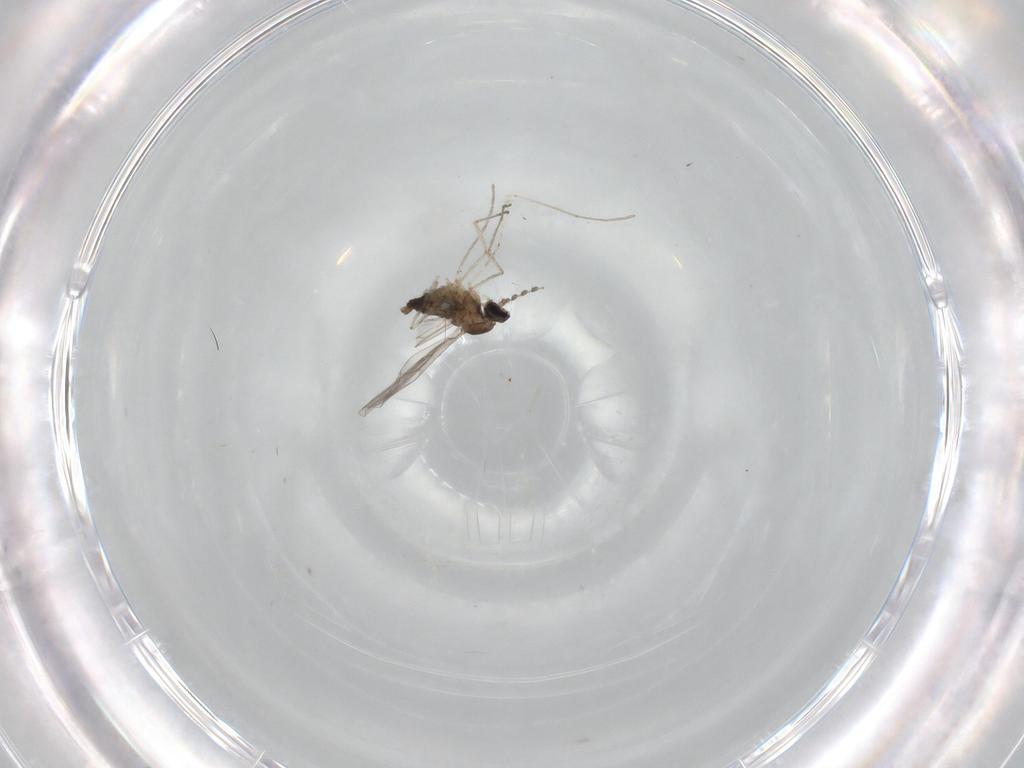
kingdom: Animalia
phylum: Arthropoda
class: Insecta
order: Diptera
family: Cecidomyiidae
